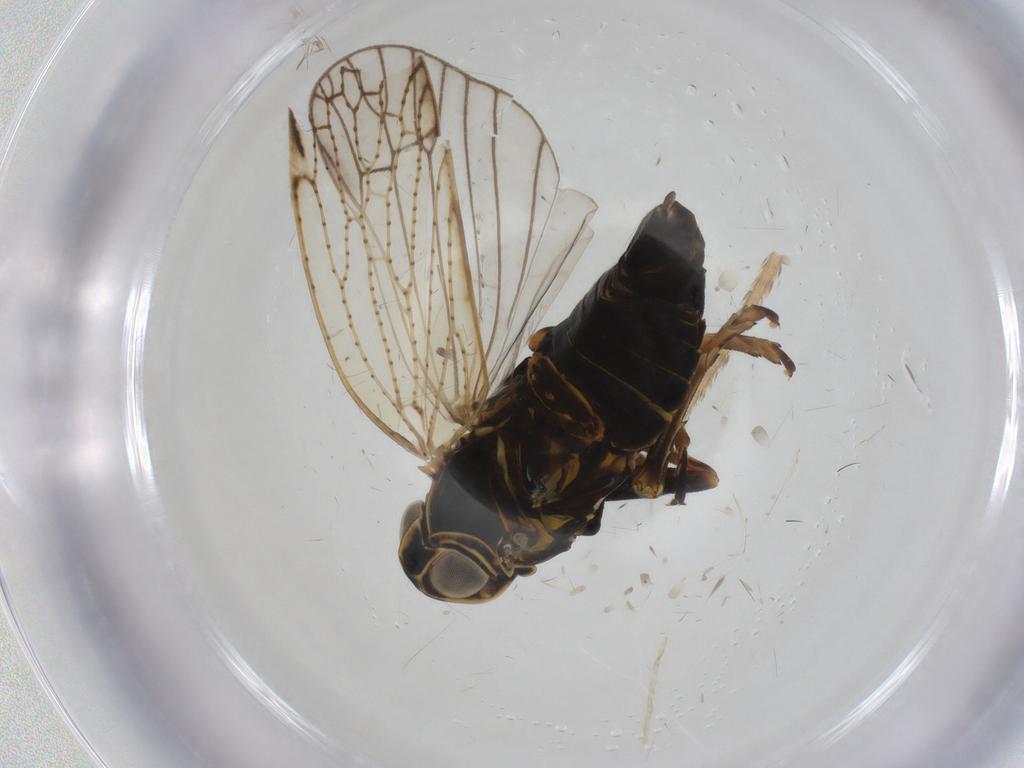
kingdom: Animalia
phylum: Arthropoda
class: Insecta
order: Hemiptera
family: Cixiidae
